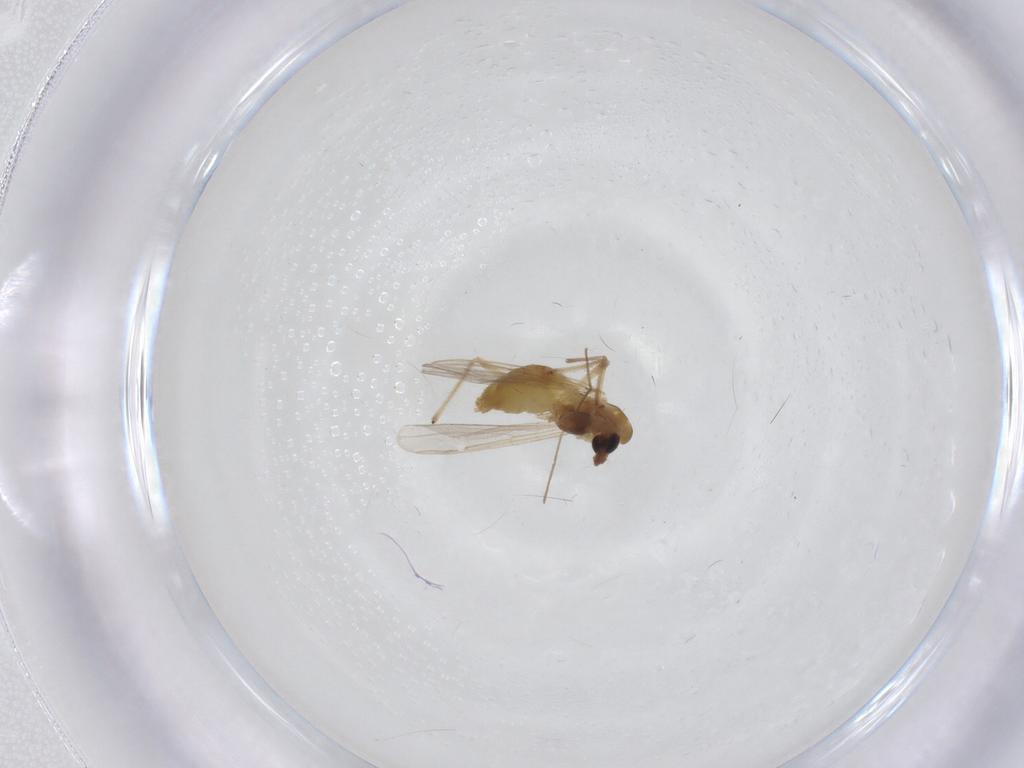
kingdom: Animalia
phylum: Arthropoda
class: Insecta
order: Diptera
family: Chironomidae
